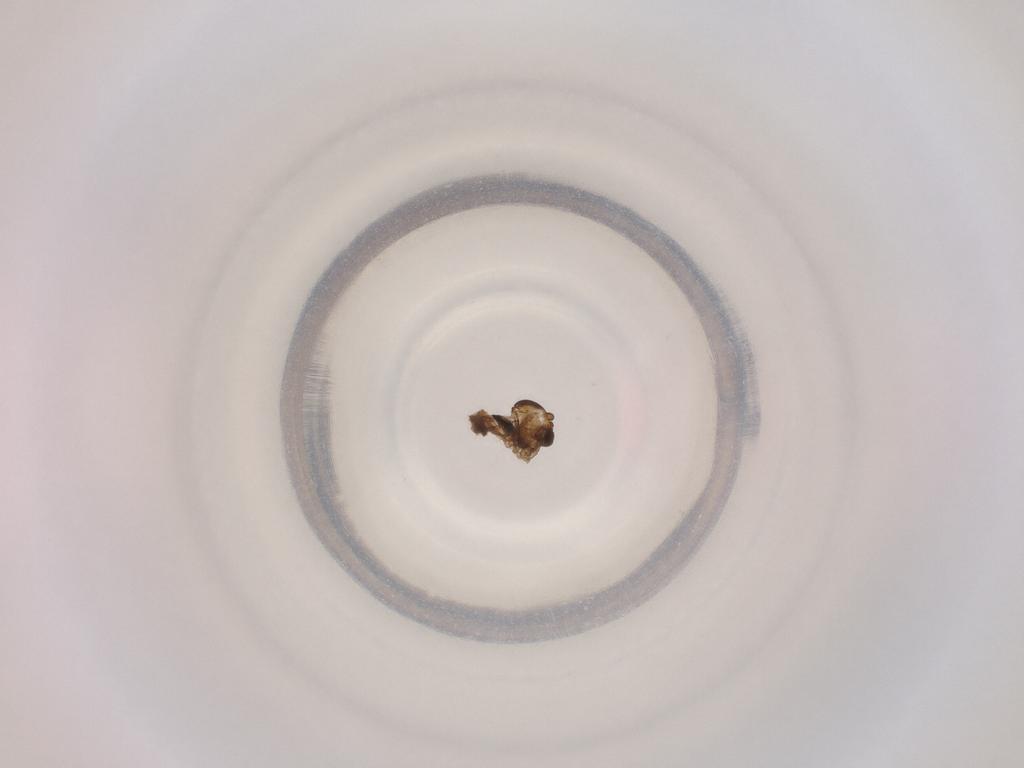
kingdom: Animalia
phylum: Arthropoda
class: Insecta
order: Diptera
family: Cecidomyiidae
